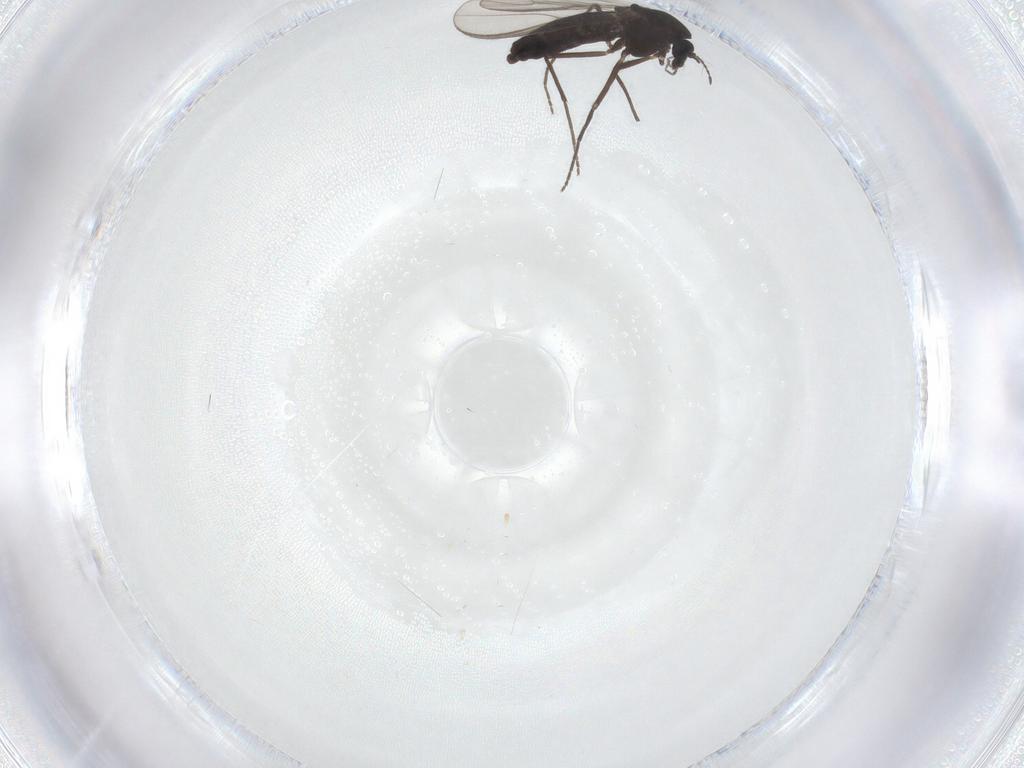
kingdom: Animalia
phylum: Arthropoda
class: Insecta
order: Diptera
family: Chironomidae
